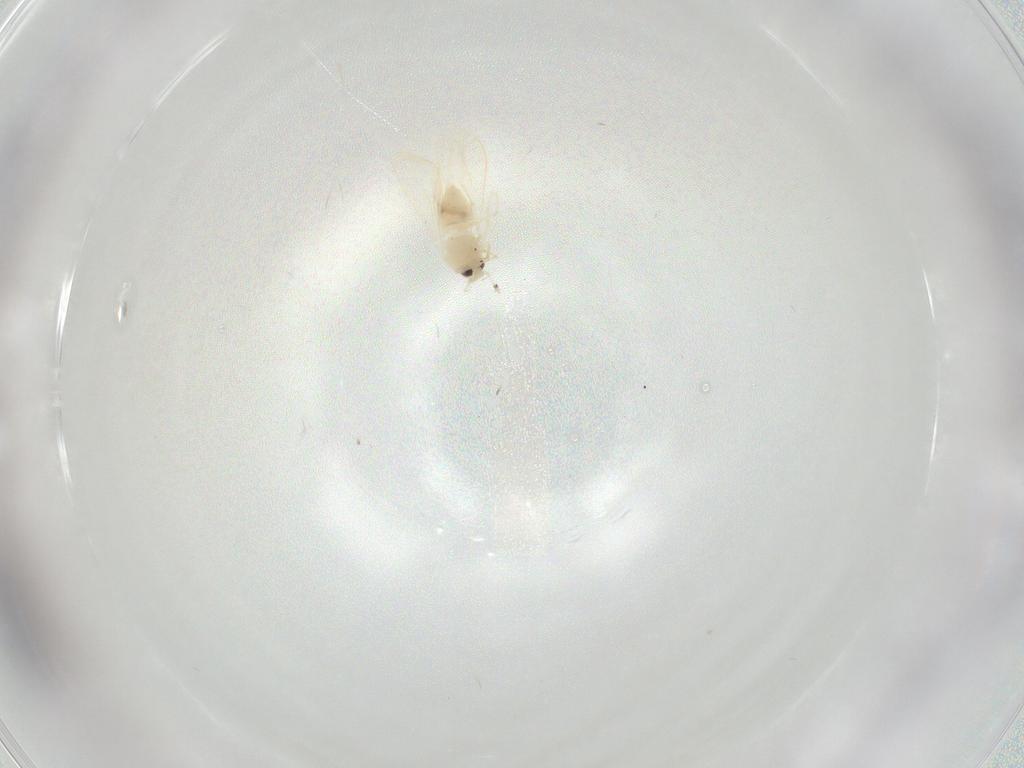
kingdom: Animalia
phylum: Arthropoda
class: Insecta
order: Hemiptera
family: Aleyrodidae
